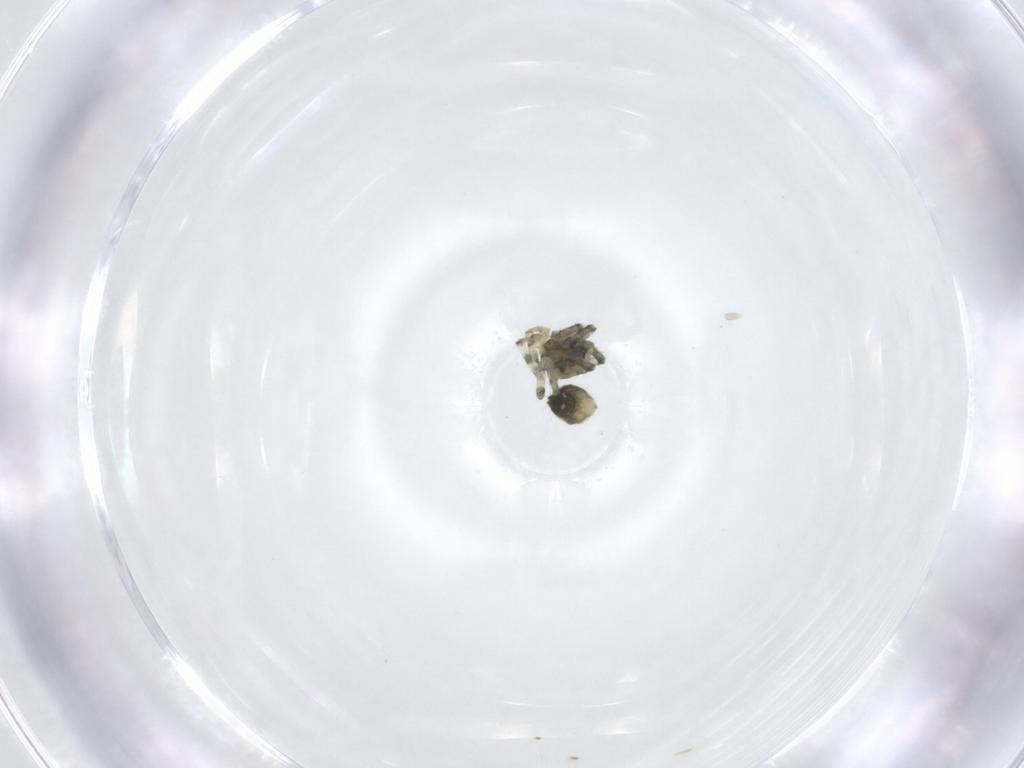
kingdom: Animalia
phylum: Arthropoda
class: Arachnida
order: Araneae
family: Tetragnathidae
